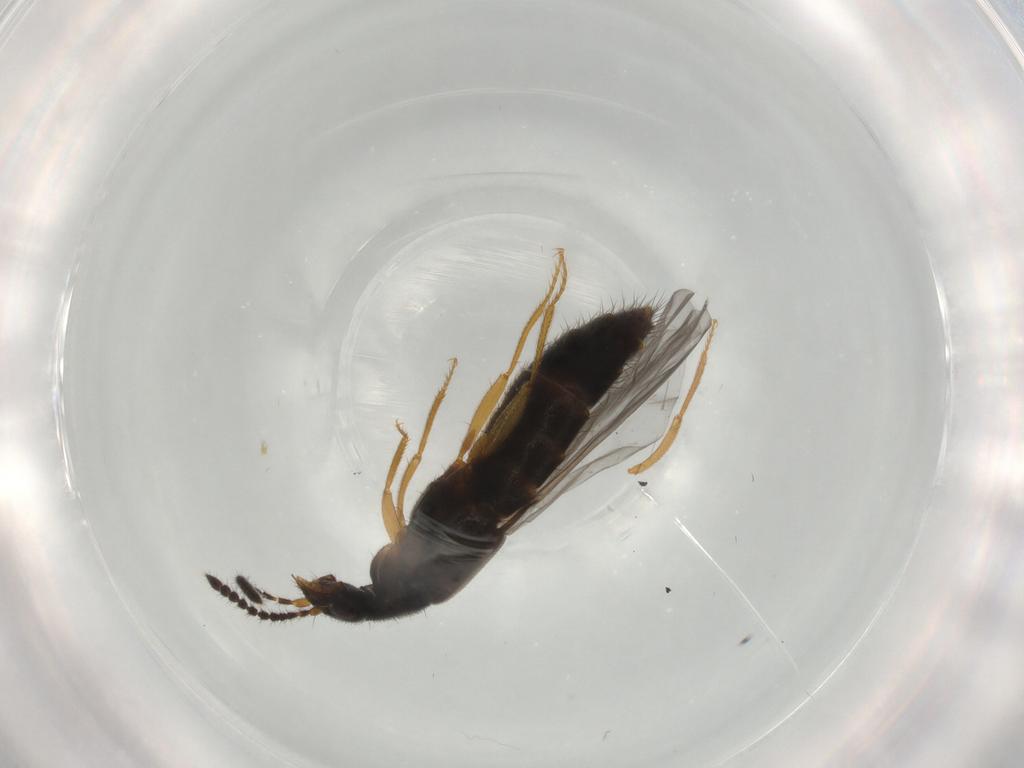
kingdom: Animalia
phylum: Arthropoda
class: Insecta
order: Coleoptera
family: Staphylinidae
